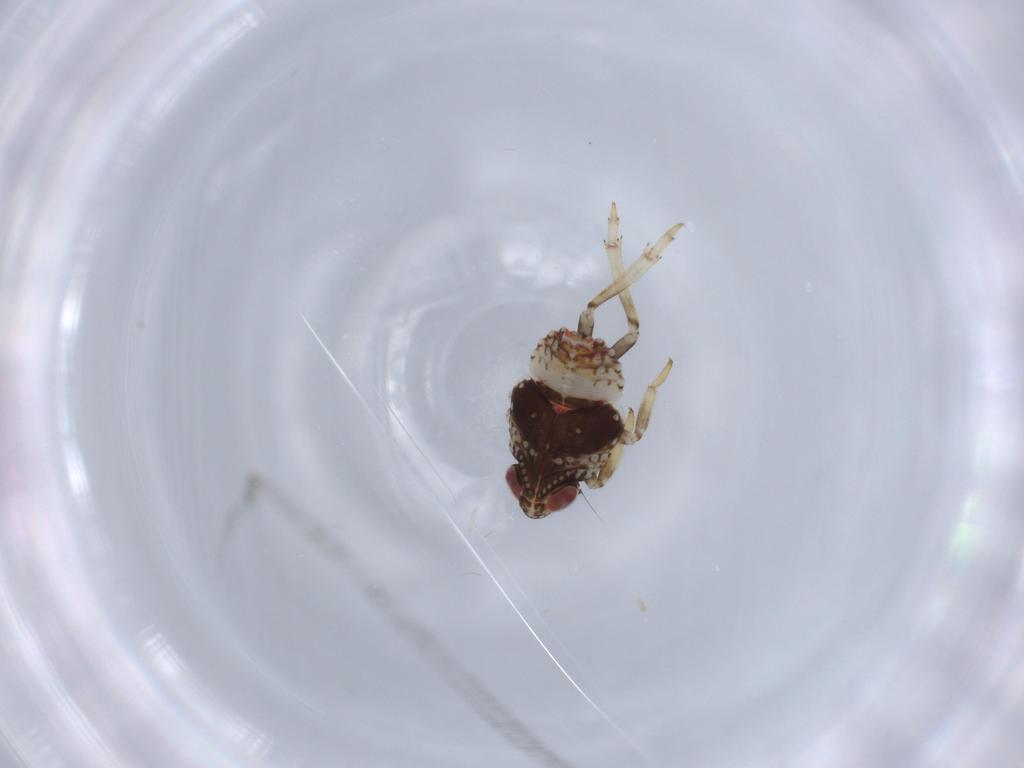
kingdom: Animalia
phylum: Arthropoda
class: Insecta
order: Hemiptera
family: Issidae
